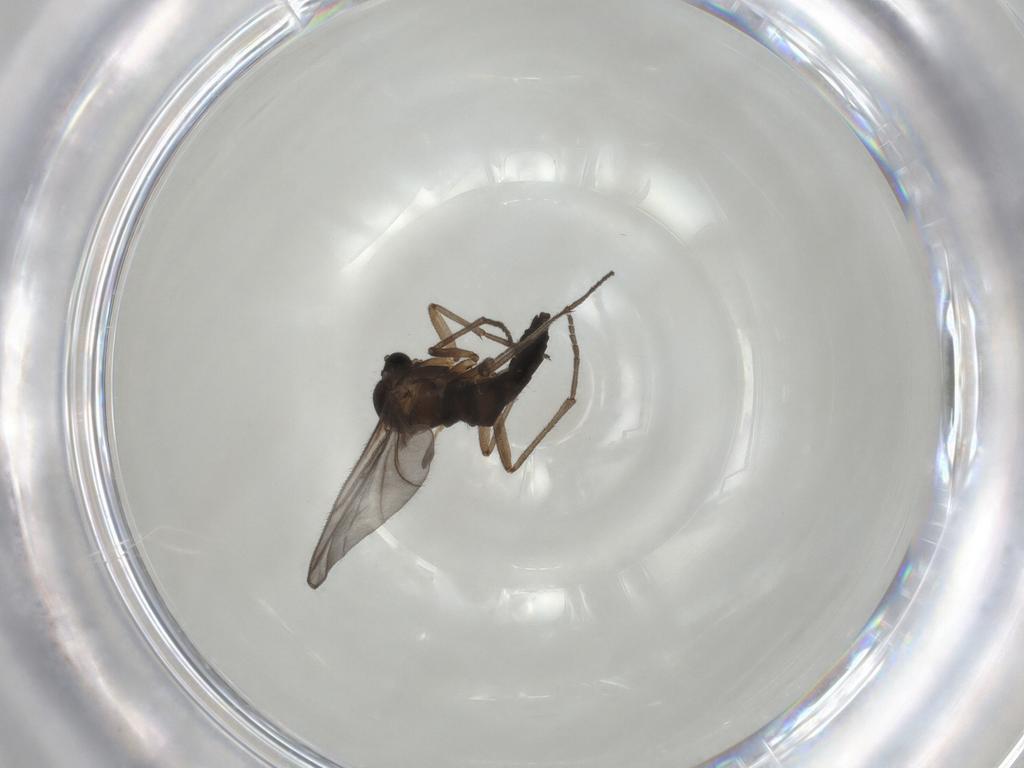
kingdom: Animalia
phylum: Arthropoda
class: Insecta
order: Diptera
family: Sciaridae
